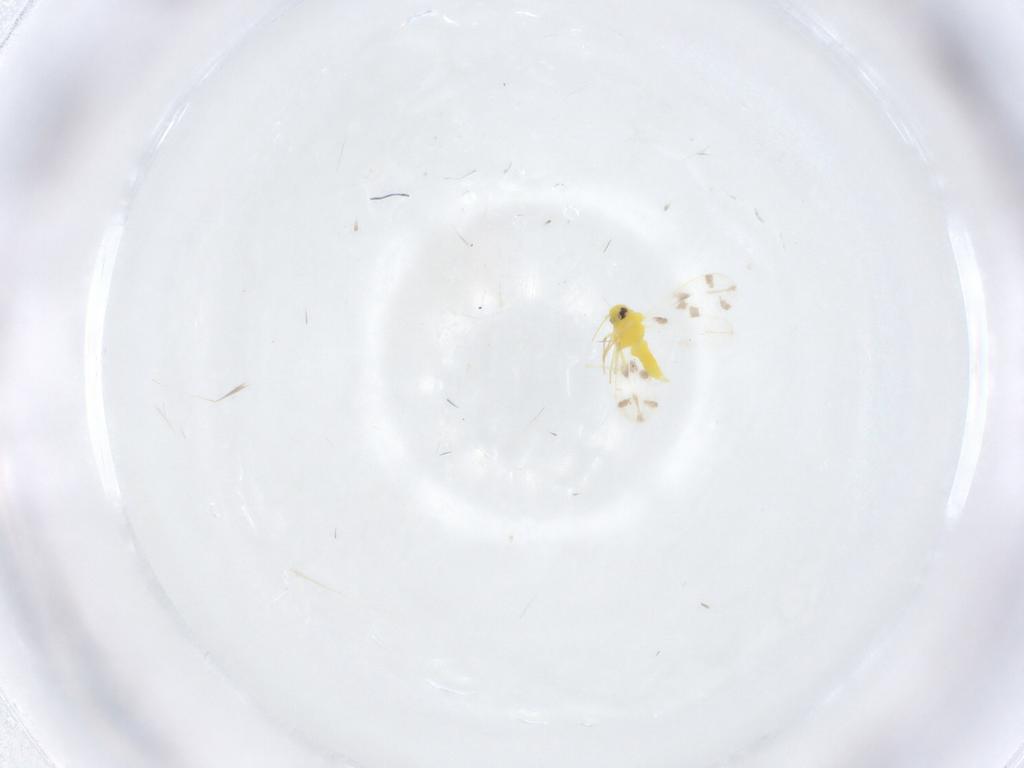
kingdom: Animalia
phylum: Arthropoda
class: Insecta
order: Hemiptera
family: Aleyrodidae
